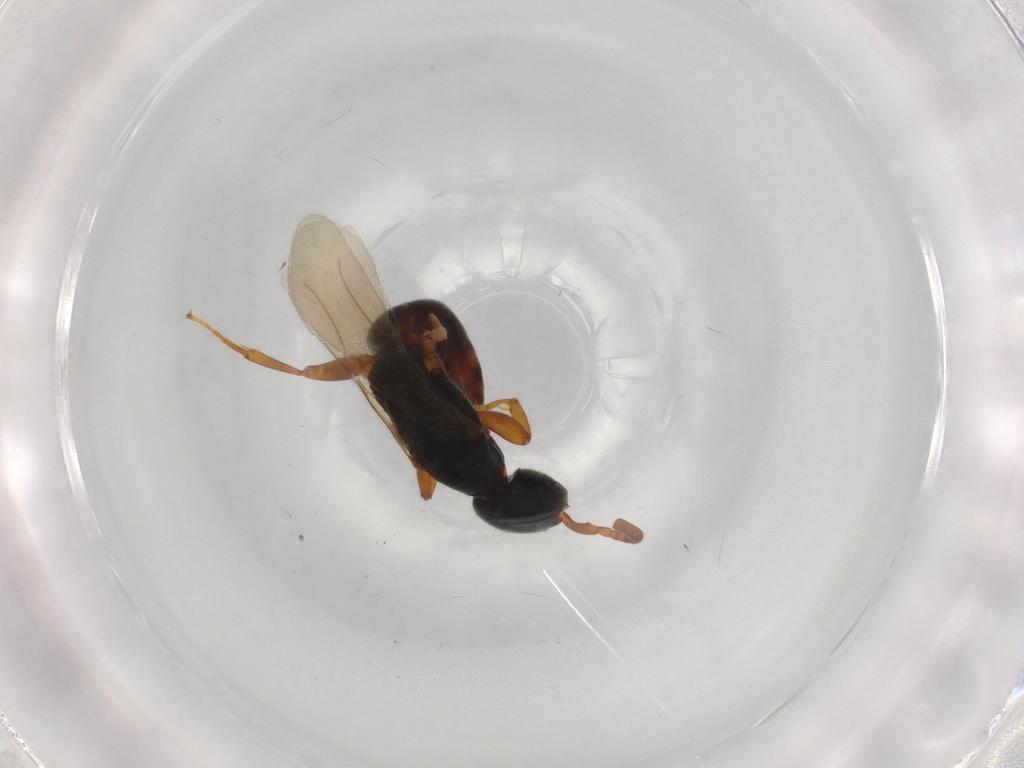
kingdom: Animalia
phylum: Arthropoda
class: Insecta
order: Hymenoptera
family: Bethylidae
